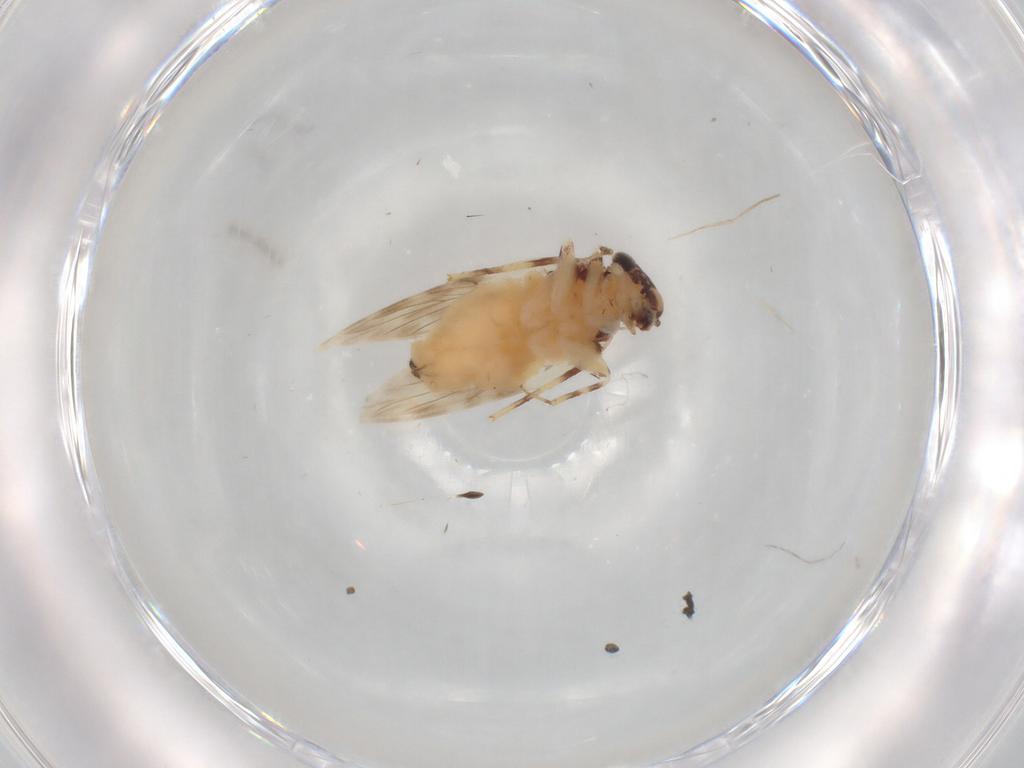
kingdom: Animalia
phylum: Arthropoda
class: Insecta
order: Psocodea
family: Lepidopsocidae
